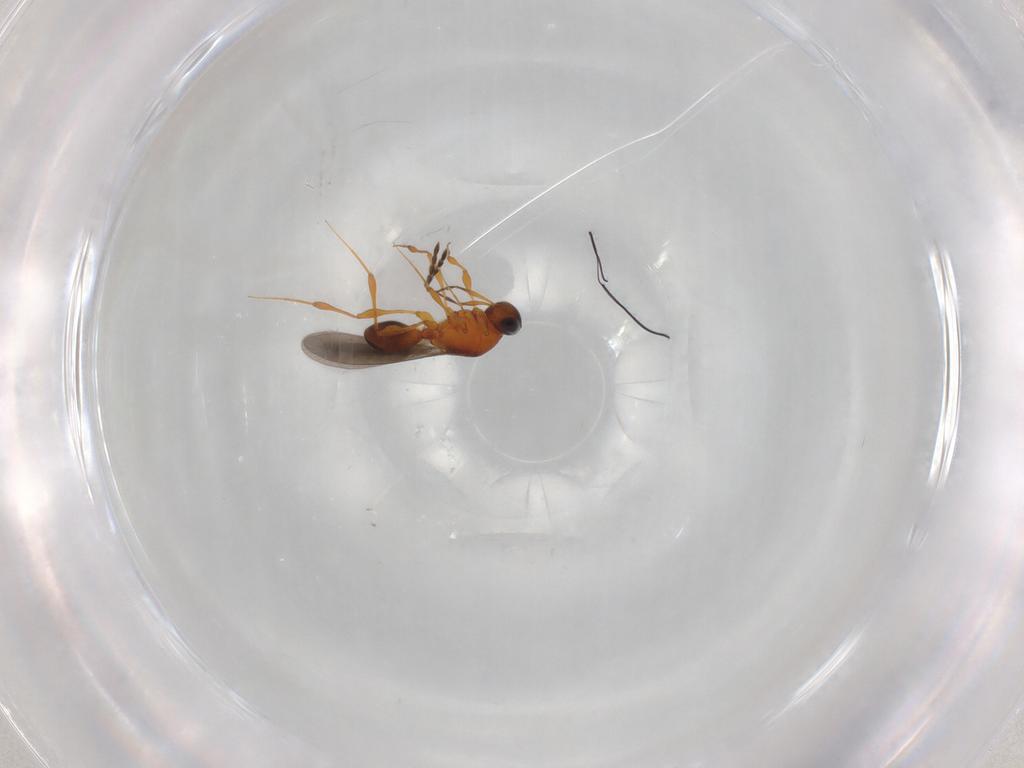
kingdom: Animalia
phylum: Arthropoda
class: Insecta
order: Hymenoptera
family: Platygastridae
